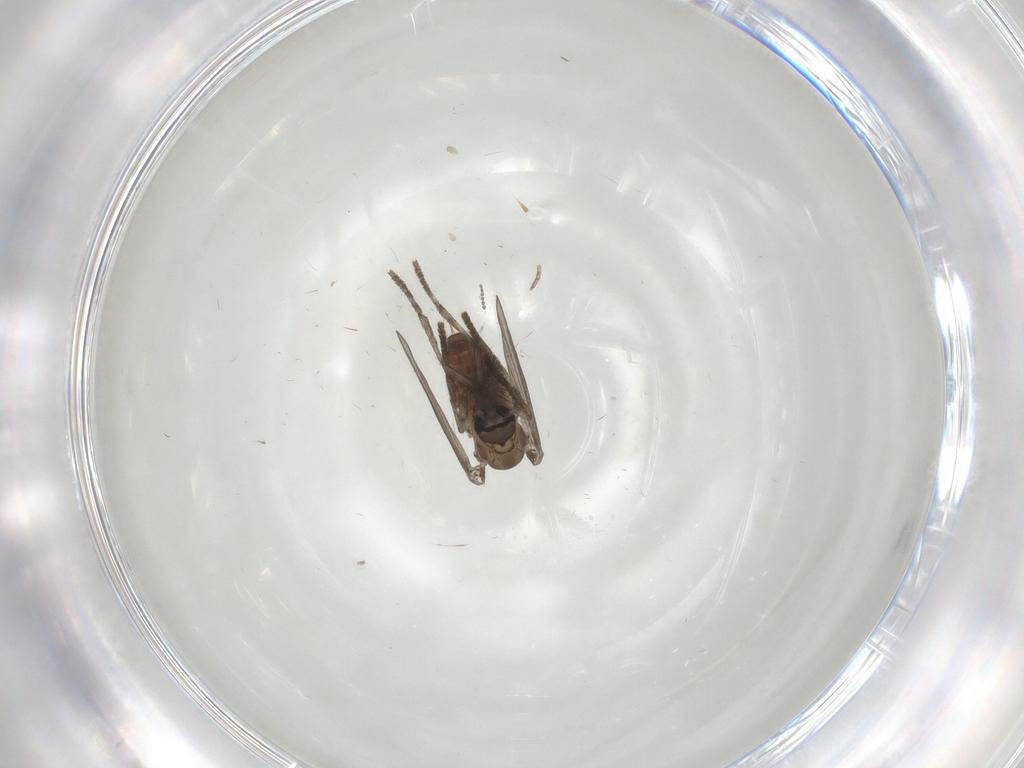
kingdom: Animalia
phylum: Arthropoda
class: Insecta
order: Diptera
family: Psychodidae
